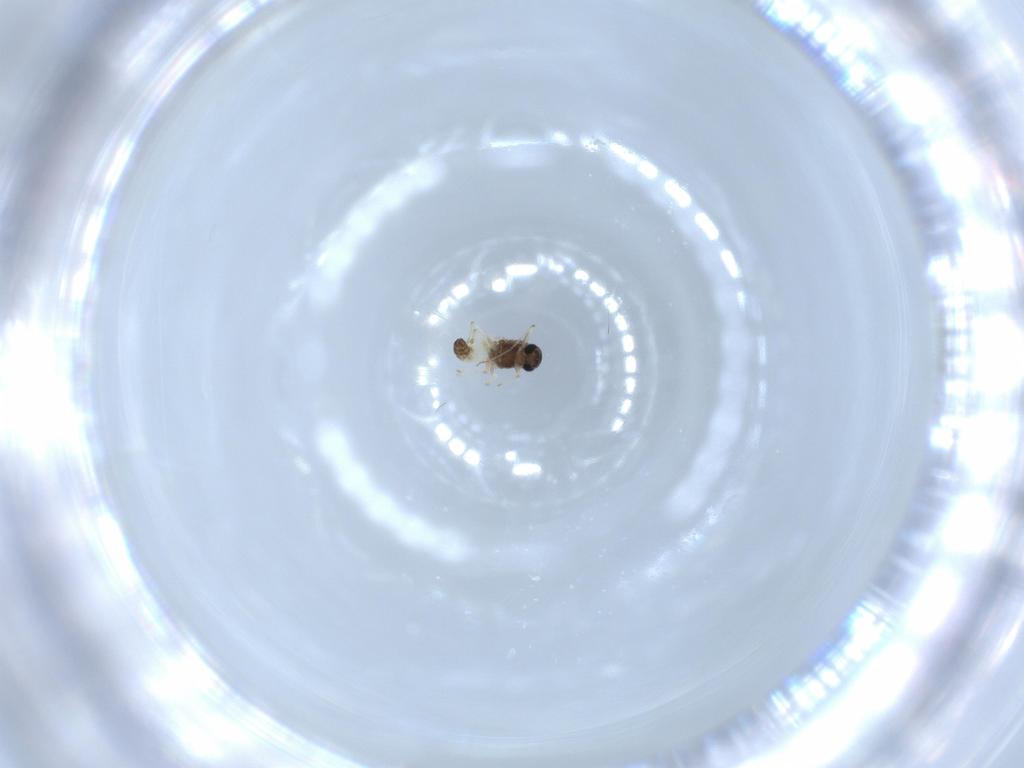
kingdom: Animalia
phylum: Arthropoda
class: Insecta
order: Diptera
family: Chironomidae
